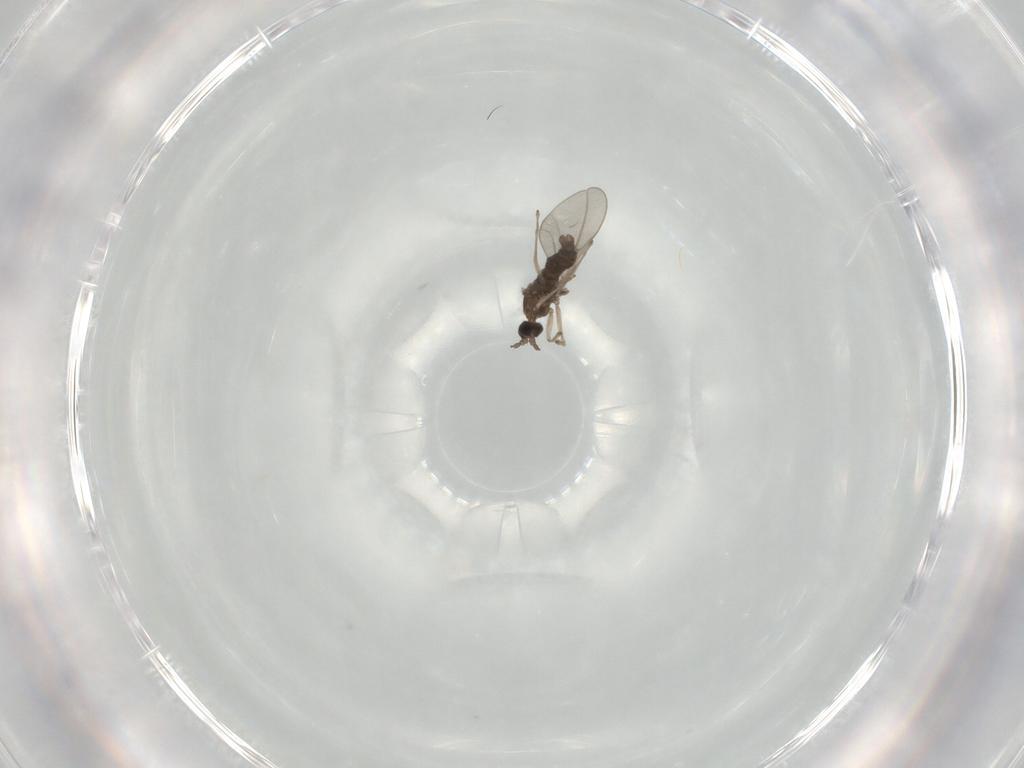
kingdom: Animalia
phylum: Arthropoda
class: Insecta
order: Diptera
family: Cecidomyiidae
